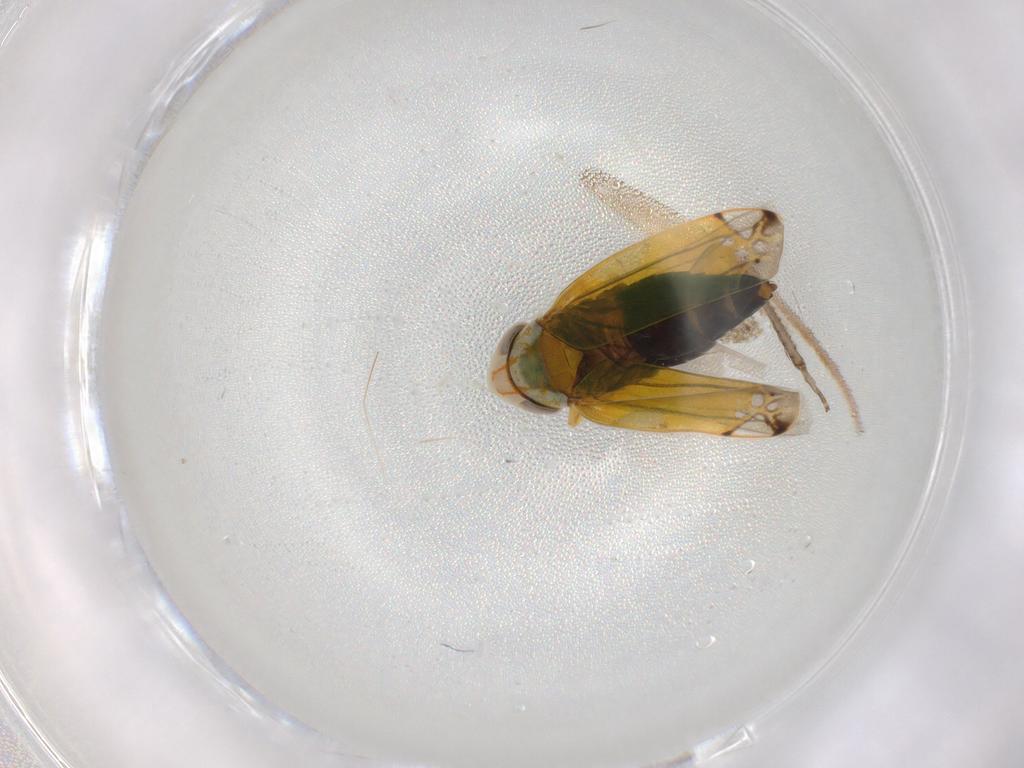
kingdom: Animalia
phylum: Arthropoda
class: Insecta
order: Hemiptera
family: Cicadellidae
